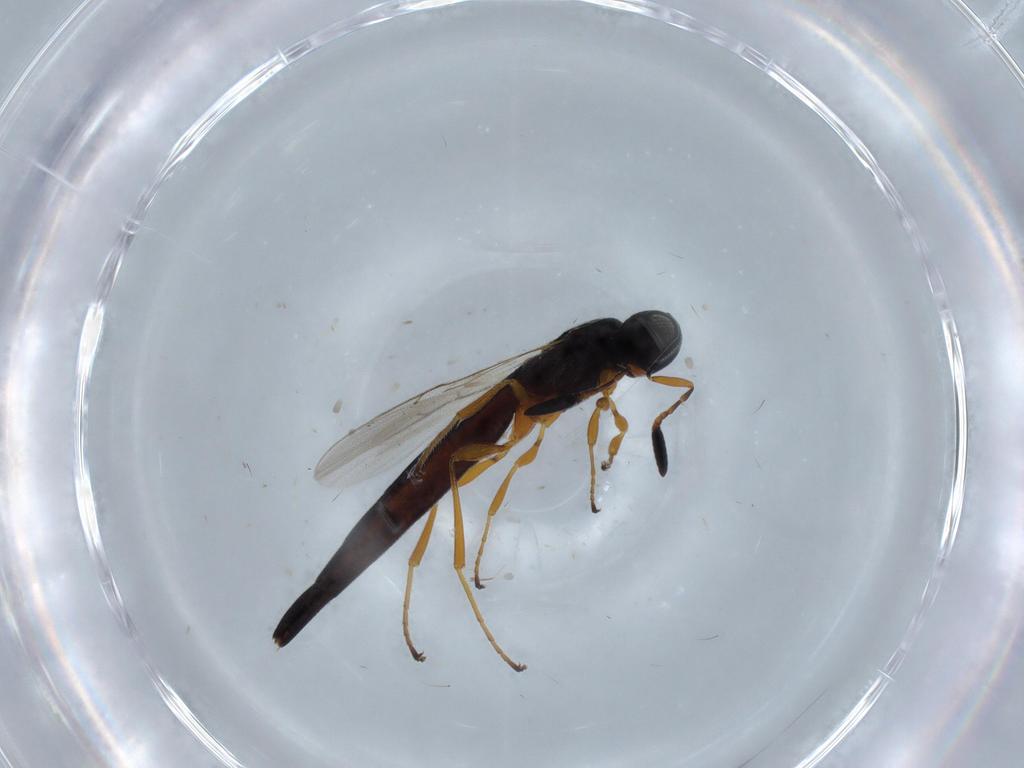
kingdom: Animalia
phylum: Arthropoda
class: Insecta
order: Hymenoptera
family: Scelionidae
